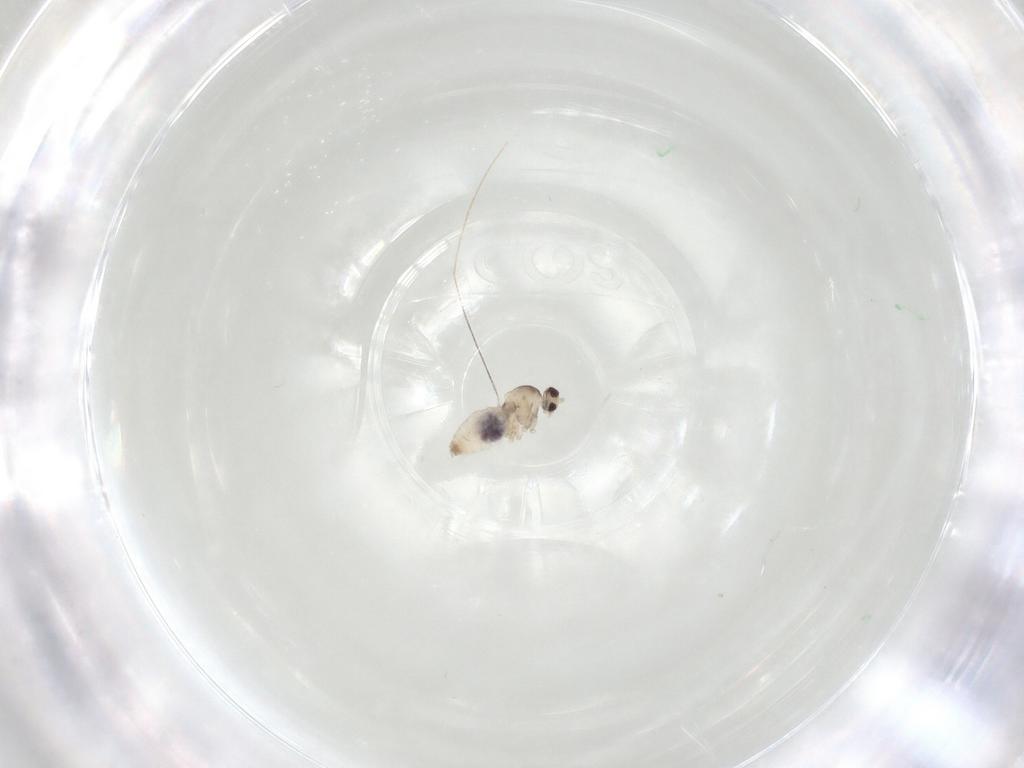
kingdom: Animalia
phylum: Arthropoda
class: Insecta
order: Diptera
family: Cecidomyiidae
